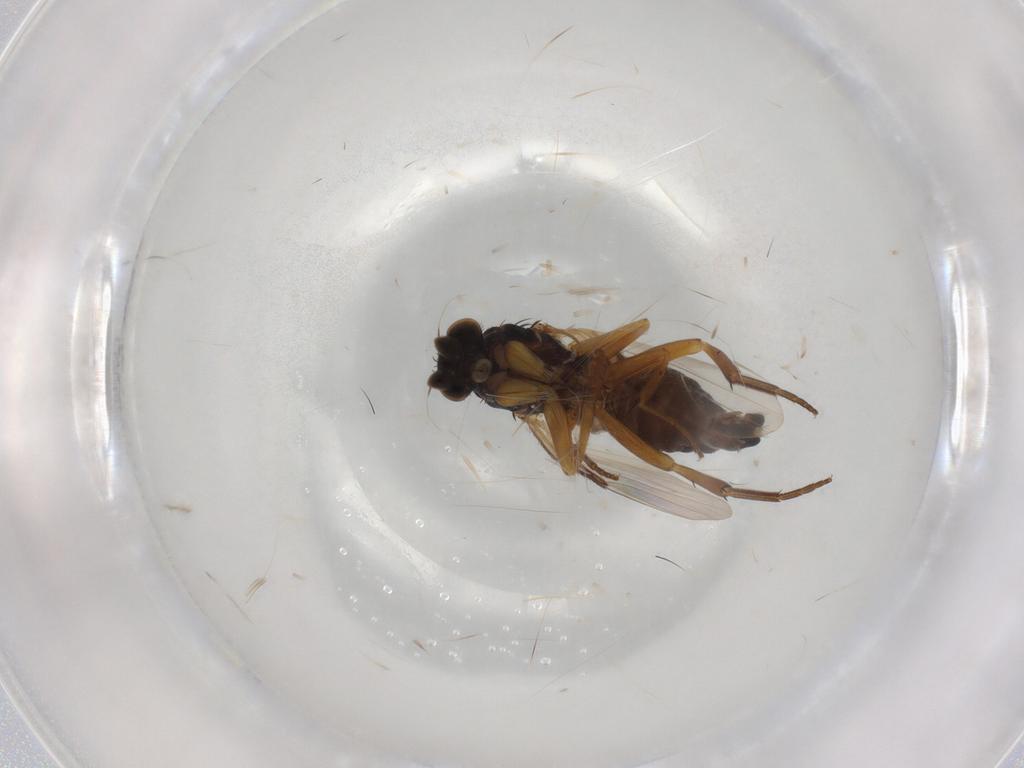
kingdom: Animalia
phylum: Arthropoda
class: Insecta
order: Diptera
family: Phoridae
